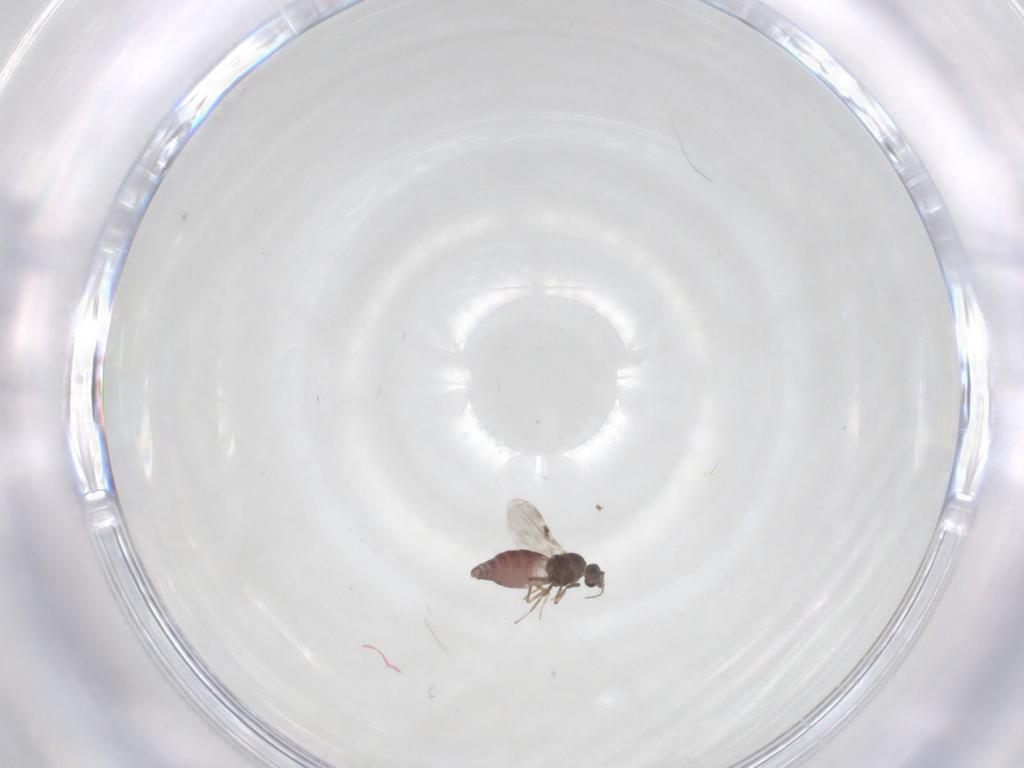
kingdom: Animalia
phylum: Arthropoda
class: Insecta
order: Diptera
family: Chironomidae
